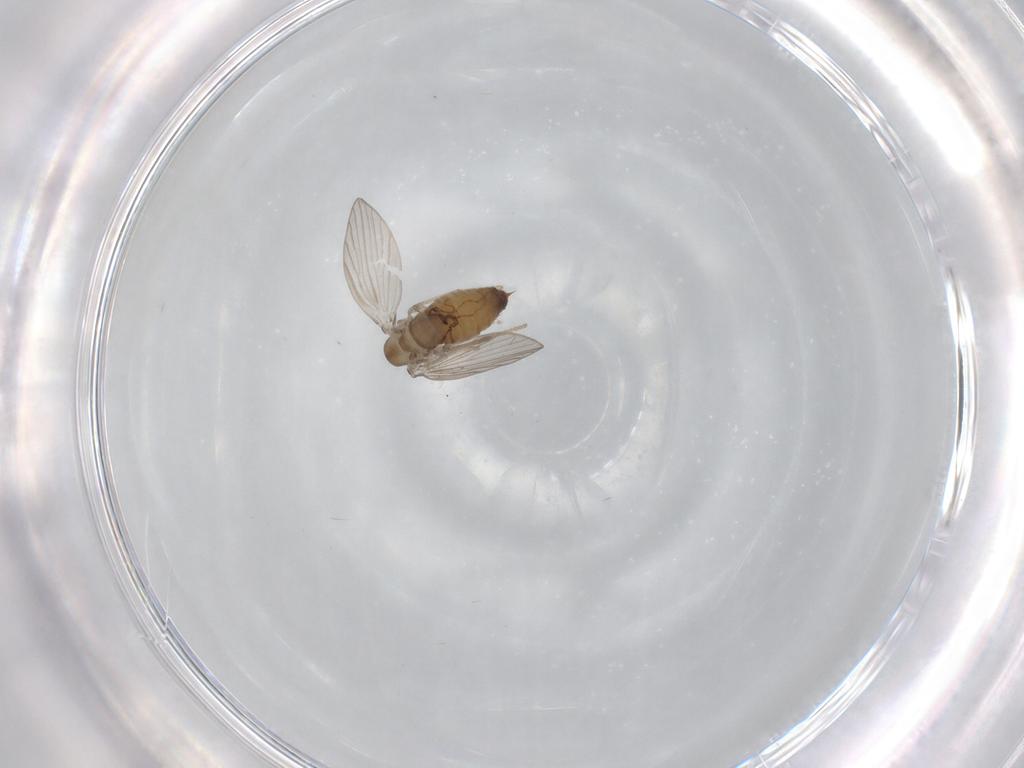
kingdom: Animalia
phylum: Arthropoda
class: Insecta
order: Diptera
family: Psychodidae
